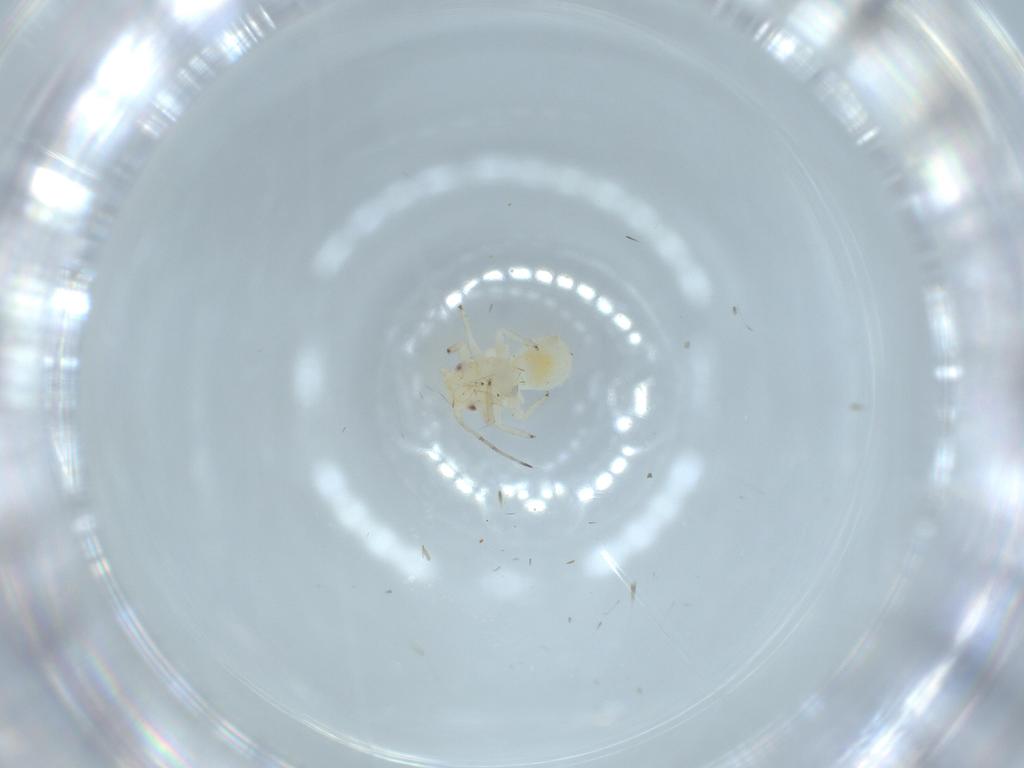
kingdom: Animalia
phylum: Arthropoda
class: Insecta
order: Hemiptera
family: Psyllidae
